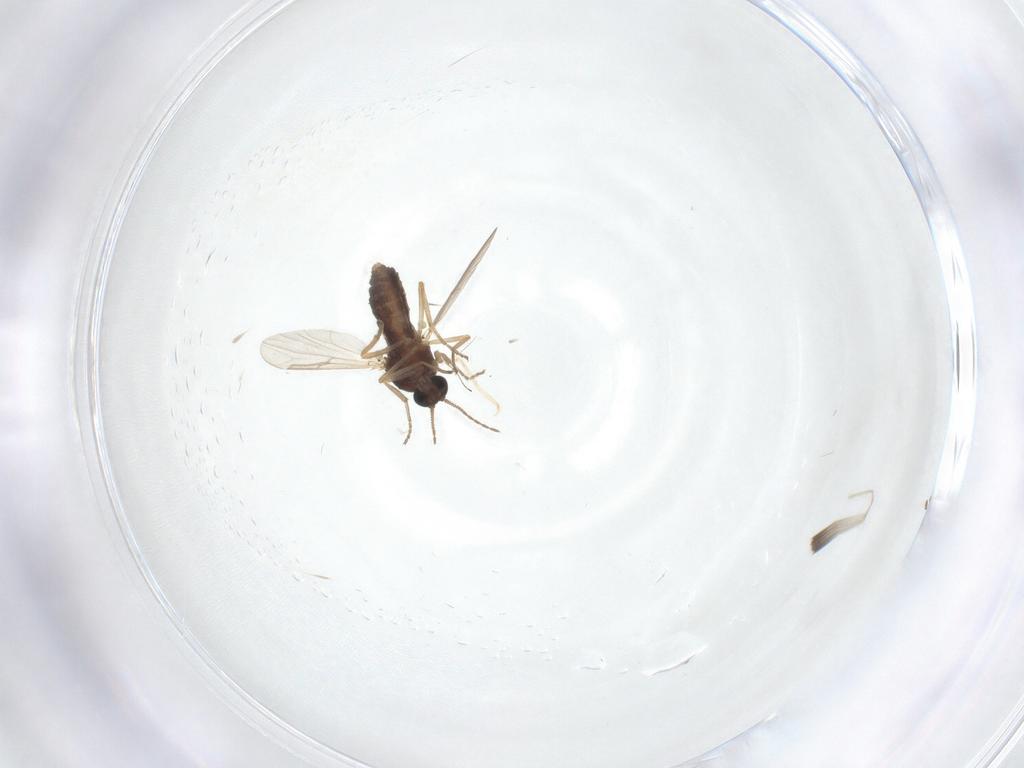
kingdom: Animalia
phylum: Arthropoda
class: Insecta
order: Diptera
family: Ceratopogonidae
